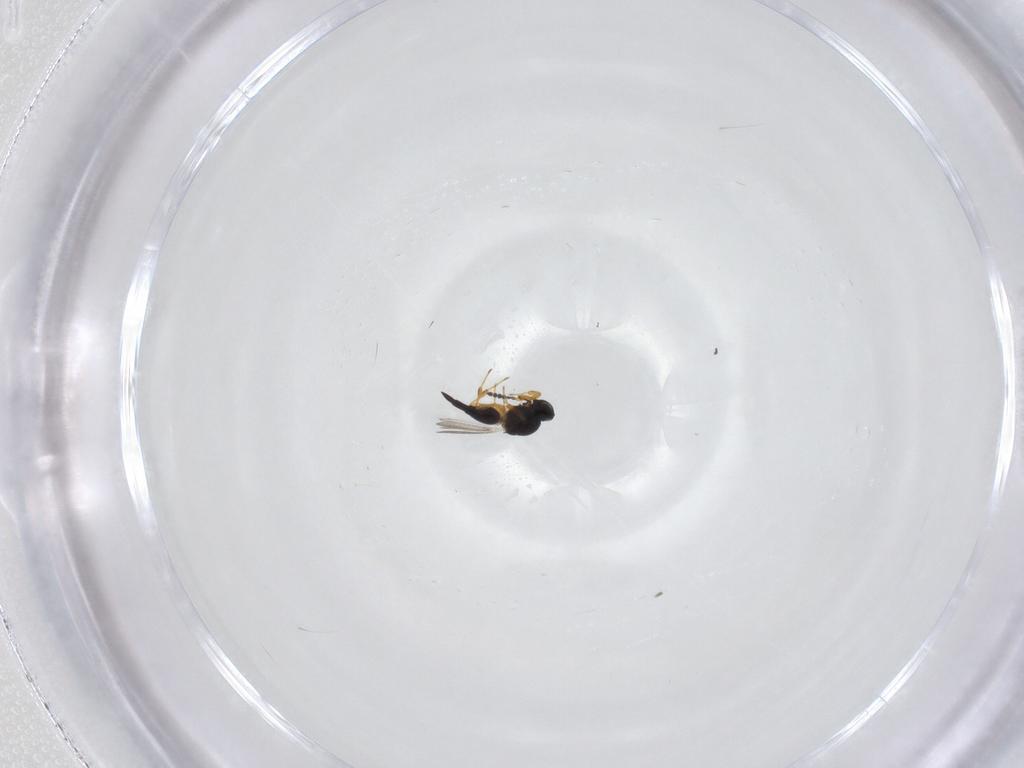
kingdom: Animalia
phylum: Arthropoda
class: Insecta
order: Hymenoptera
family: Platygastridae
